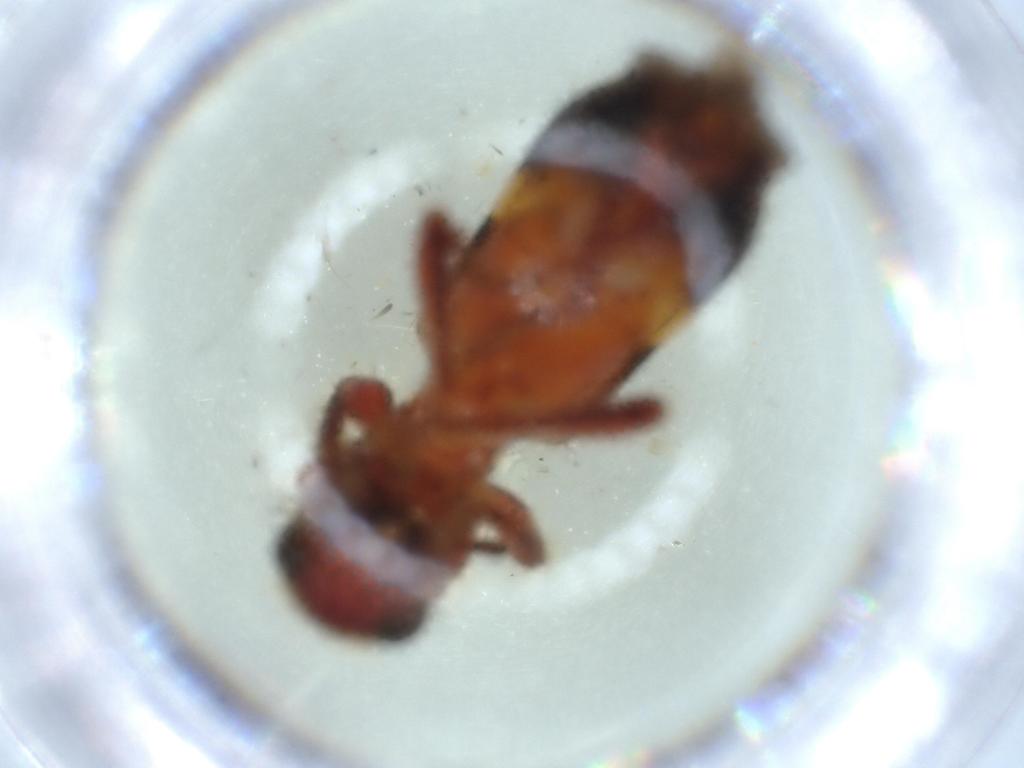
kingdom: Animalia
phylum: Arthropoda
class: Insecta
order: Coleoptera
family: Chrysomelidae
